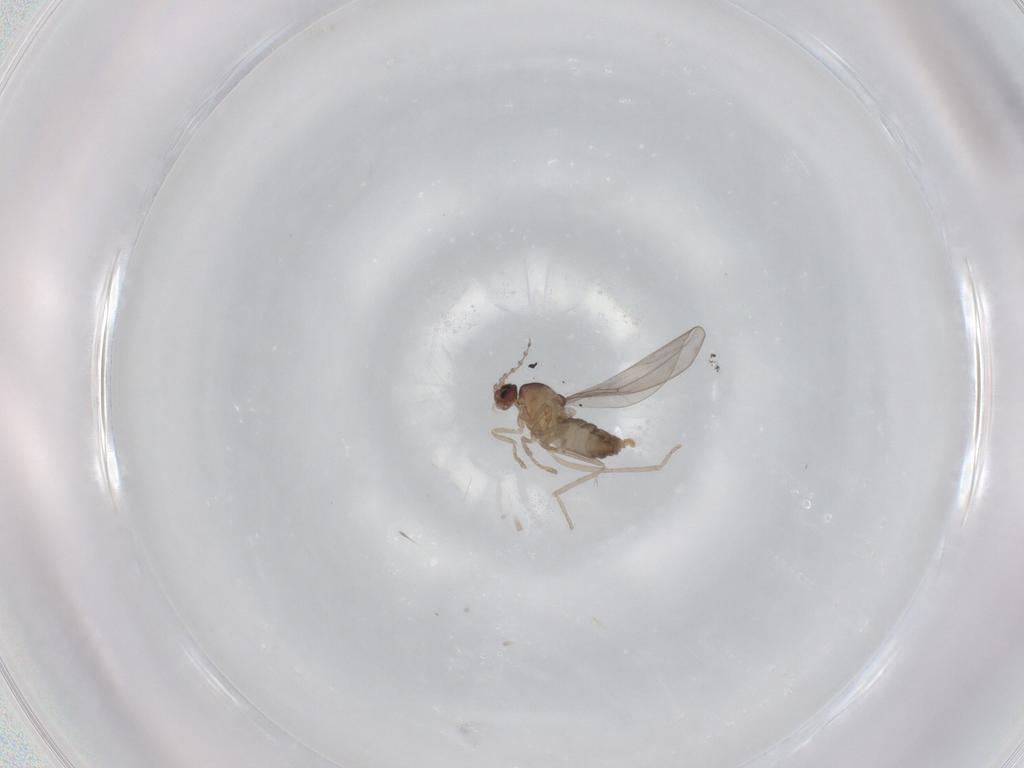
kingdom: Animalia
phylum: Arthropoda
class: Insecta
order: Diptera
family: Cecidomyiidae
